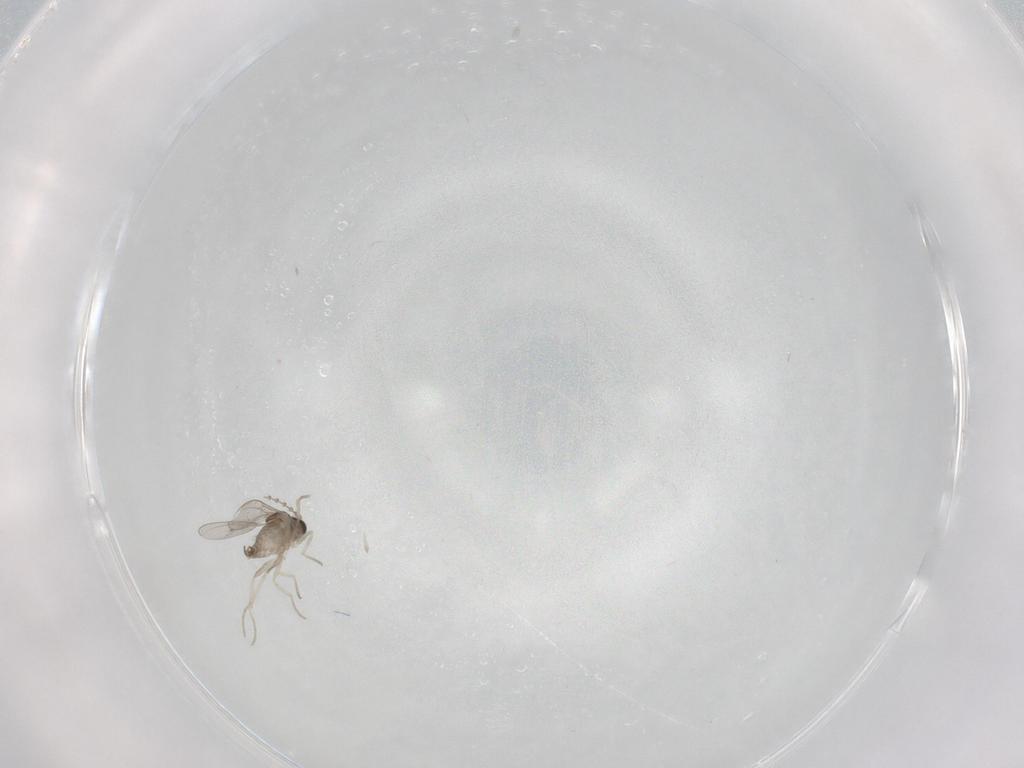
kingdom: Animalia
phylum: Arthropoda
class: Insecta
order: Diptera
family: Cecidomyiidae
